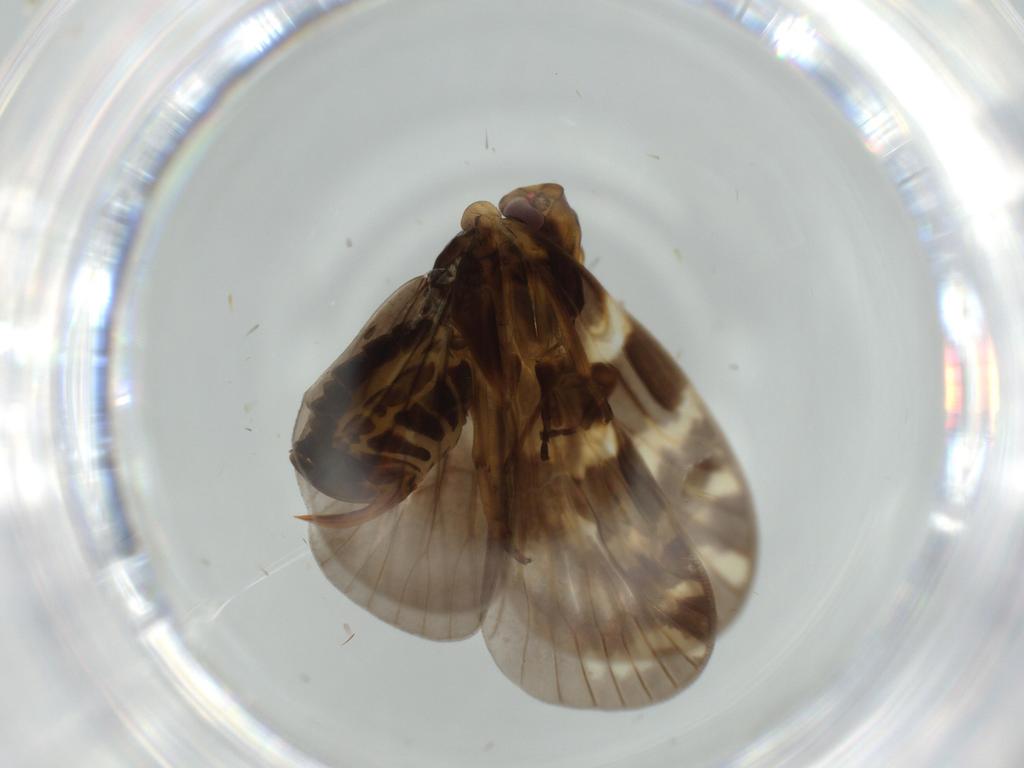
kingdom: Animalia
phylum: Arthropoda
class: Insecta
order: Hemiptera
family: Cixiidae
